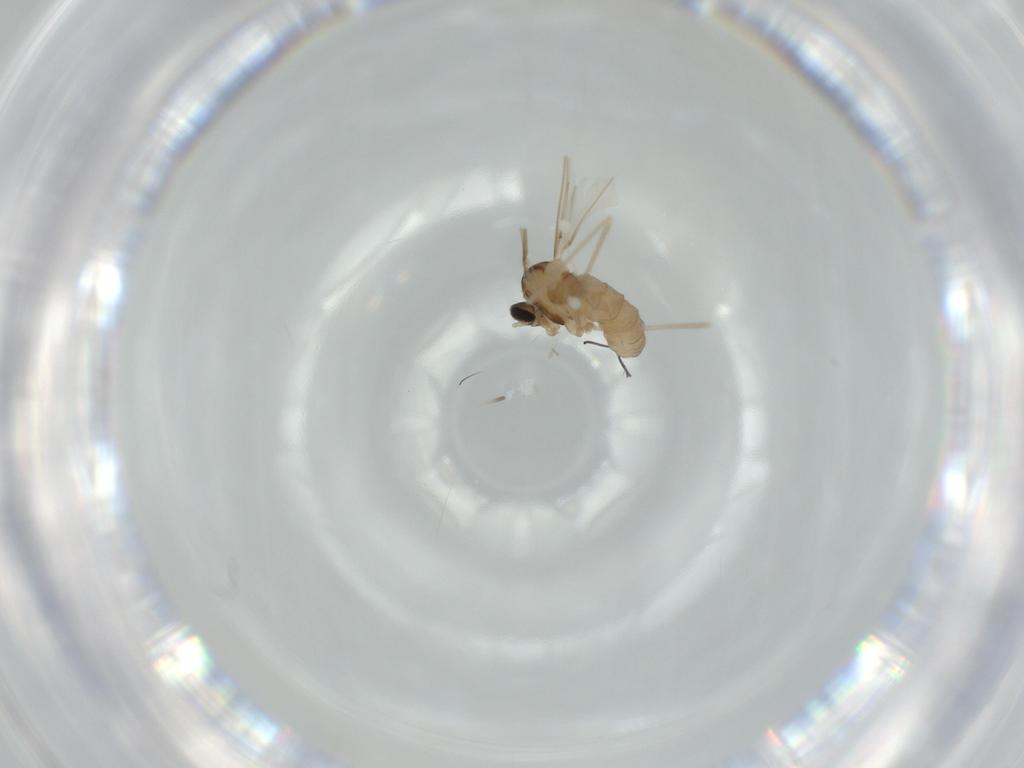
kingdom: Animalia
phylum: Arthropoda
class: Insecta
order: Diptera
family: Cecidomyiidae
